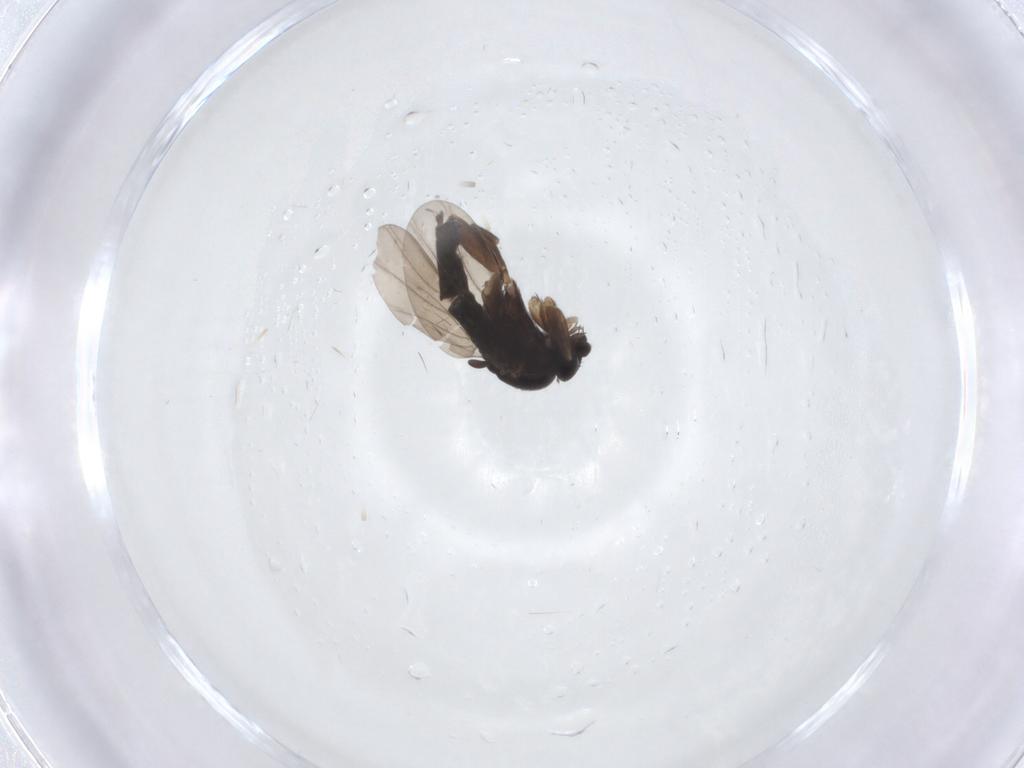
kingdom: Animalia
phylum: Arthropoda
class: Insecta
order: Diptera
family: Phoridae
